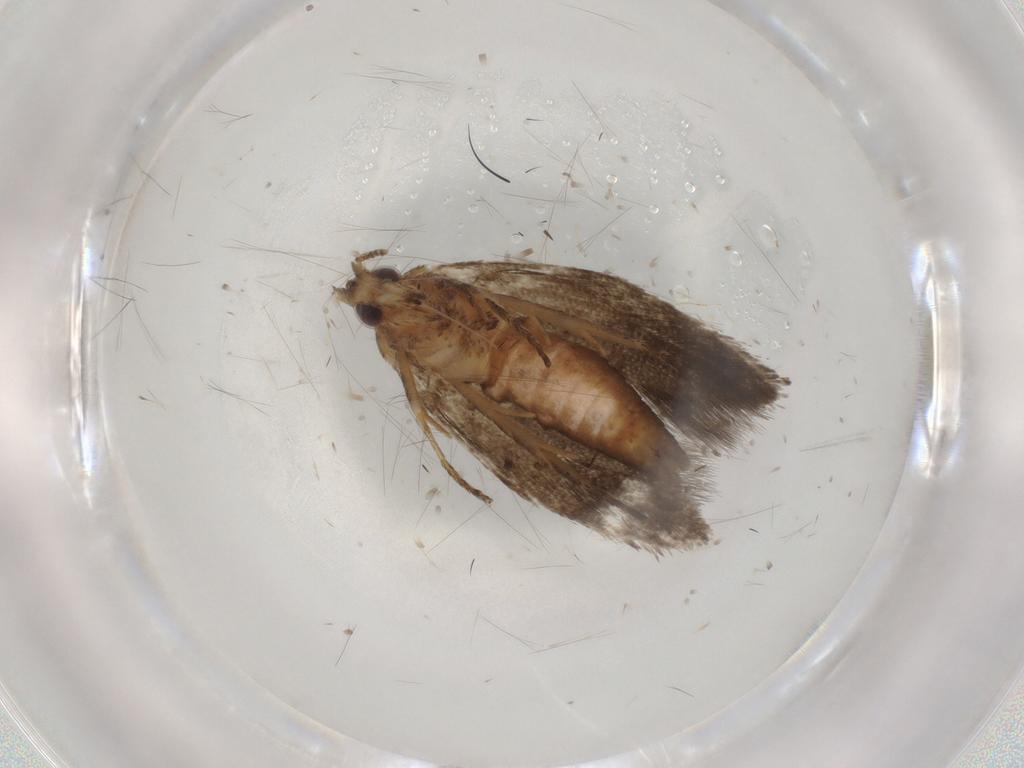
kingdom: Animalia
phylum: Arthropoda
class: Insecta
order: Lepidoptera
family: Plutellidae
